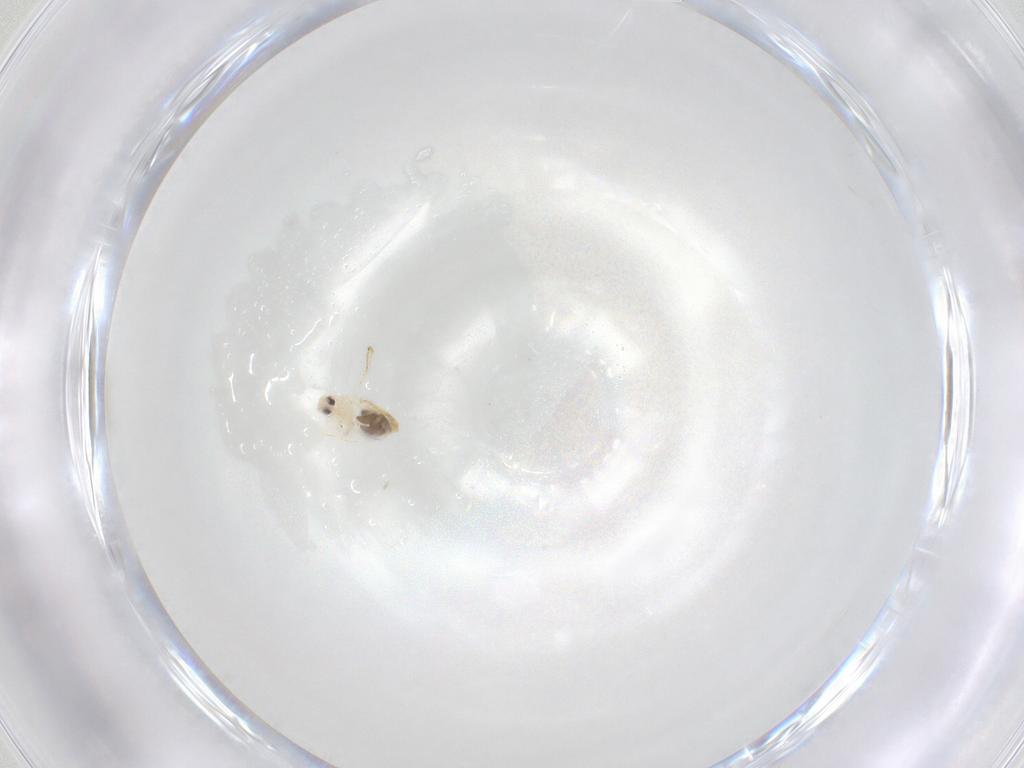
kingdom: Animalia
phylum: Arthropoda
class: Insecta
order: Hemiptera
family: Aleyrodidae
